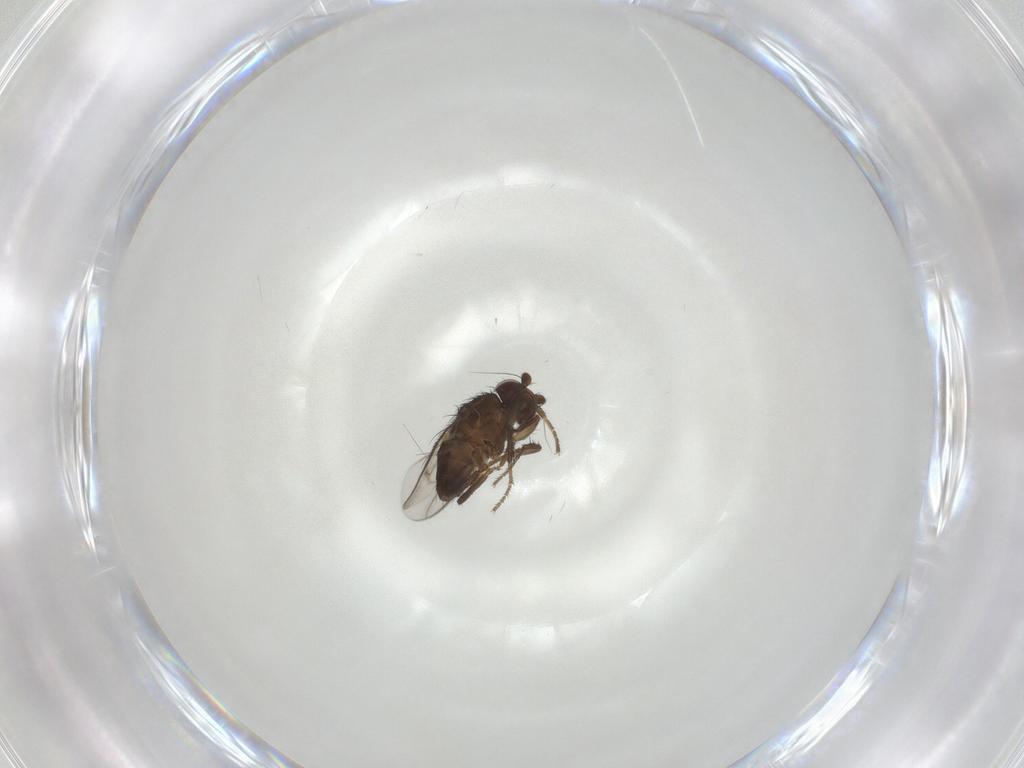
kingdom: Animalia
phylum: Arthropoda
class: Insecta
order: Diptera
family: Sphaeroceridae
